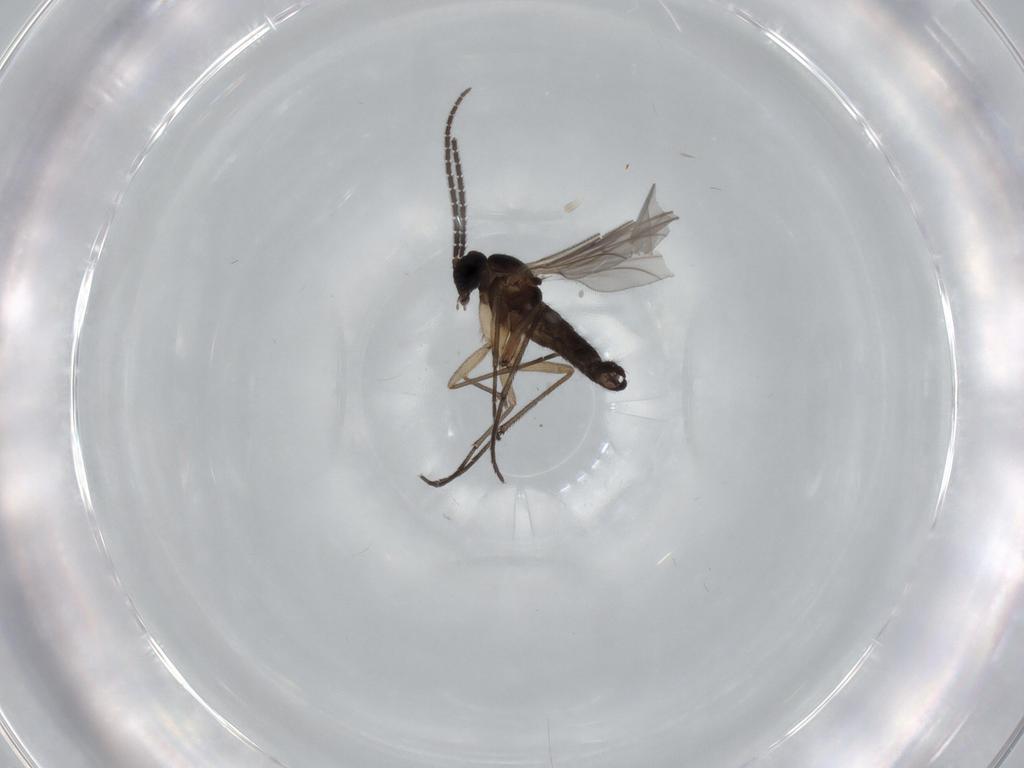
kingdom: Animalia
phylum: Arthropoda
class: Insecta
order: Diptera
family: Sciaridae
